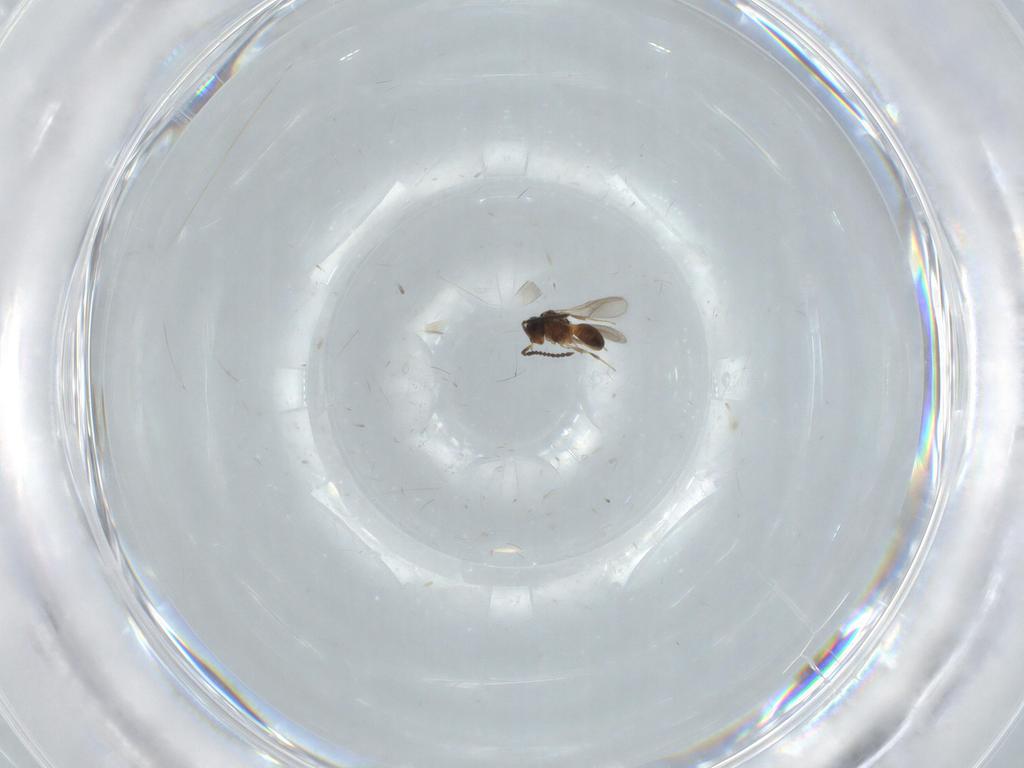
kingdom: Animalia
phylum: Arthropoda
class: Insecta
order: Hymenoptera
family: Scelionidae
